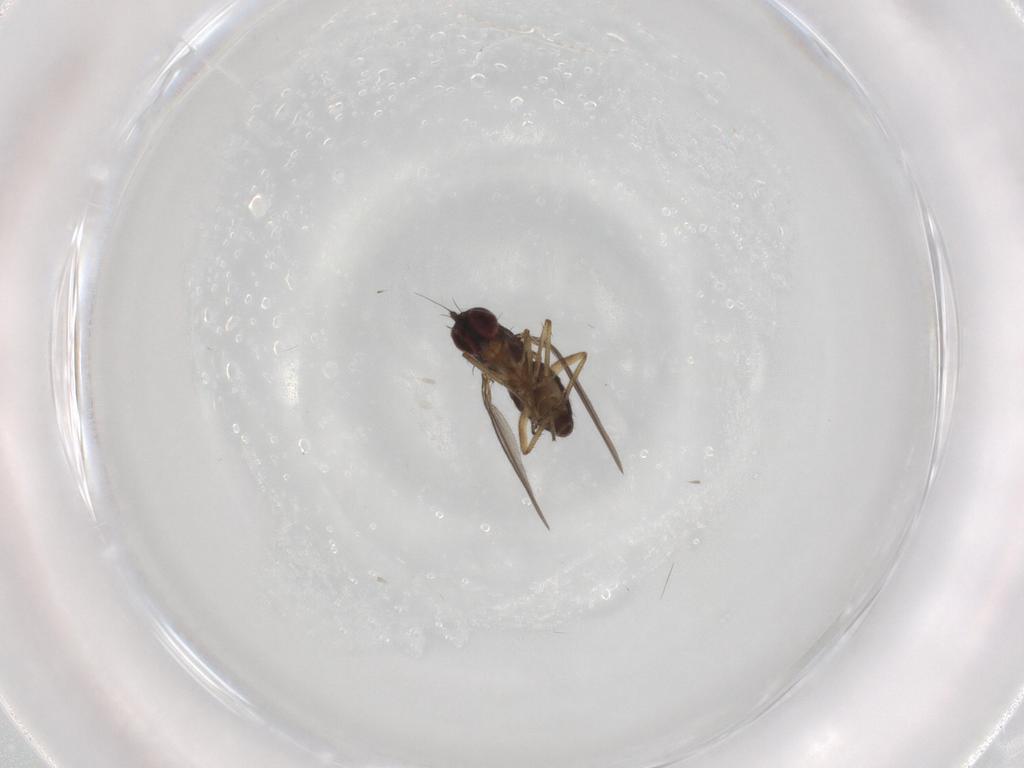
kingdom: Animalia
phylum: Arthropoda
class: Insecta
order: Diptera
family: Dolichopodidae
